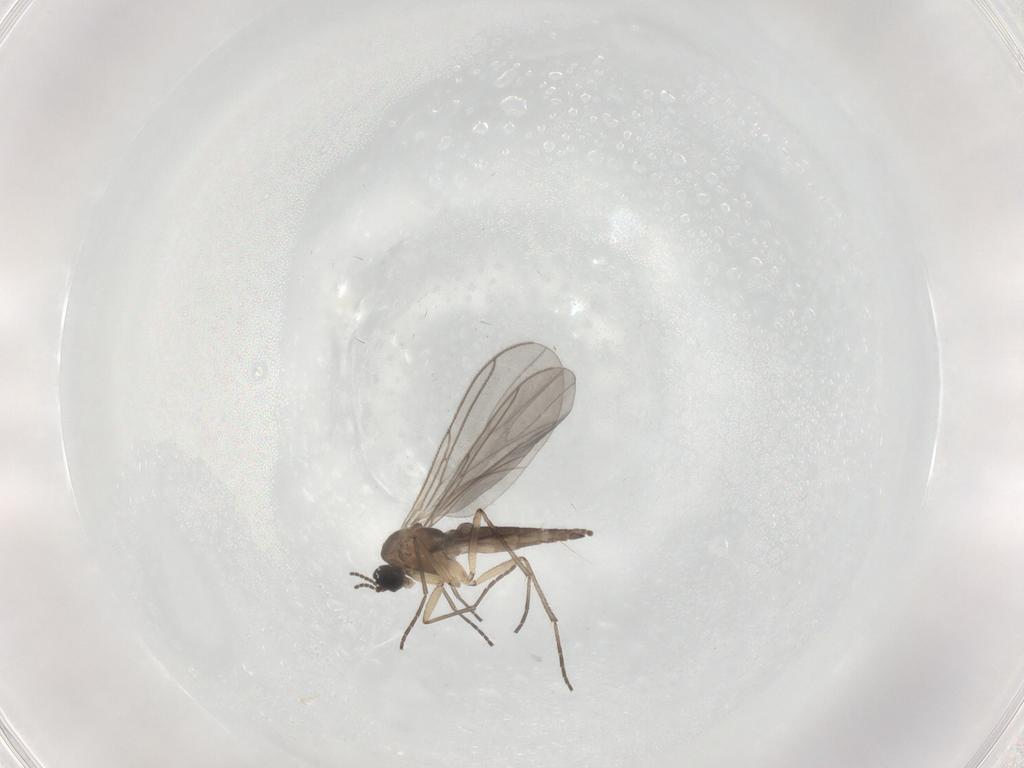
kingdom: Animalia
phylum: Arthropoda
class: Insecta
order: Diptera
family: Sciaridae
